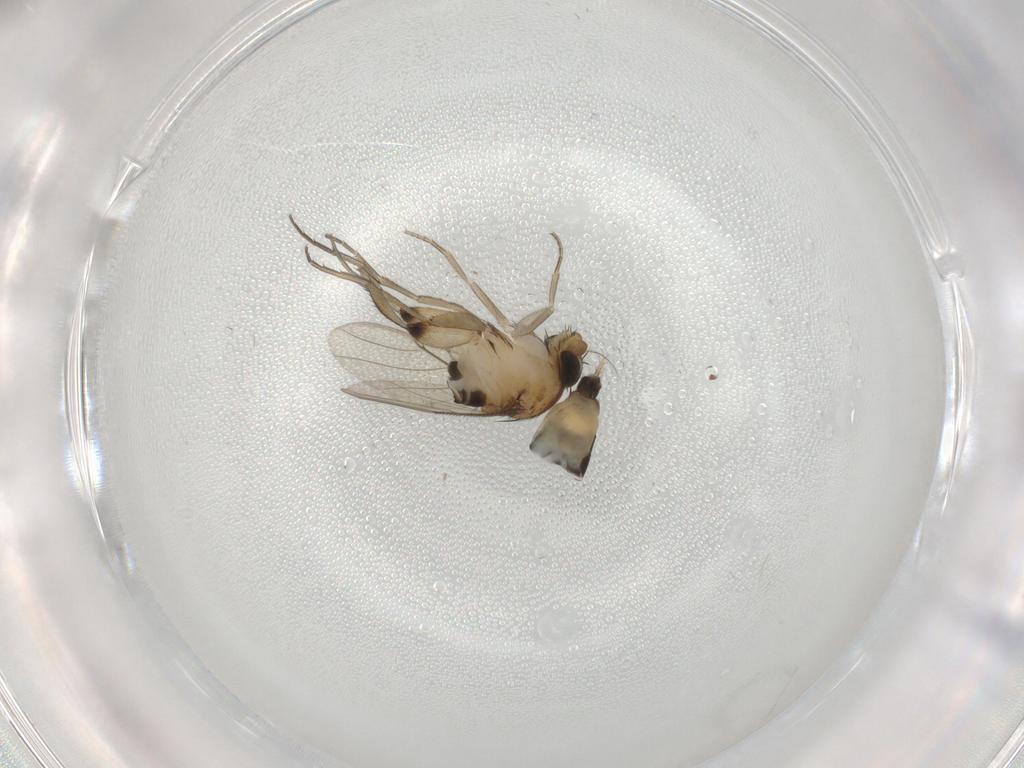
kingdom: Animalia
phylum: Arthropoda
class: Insecta
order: Diptera
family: Phoridae
